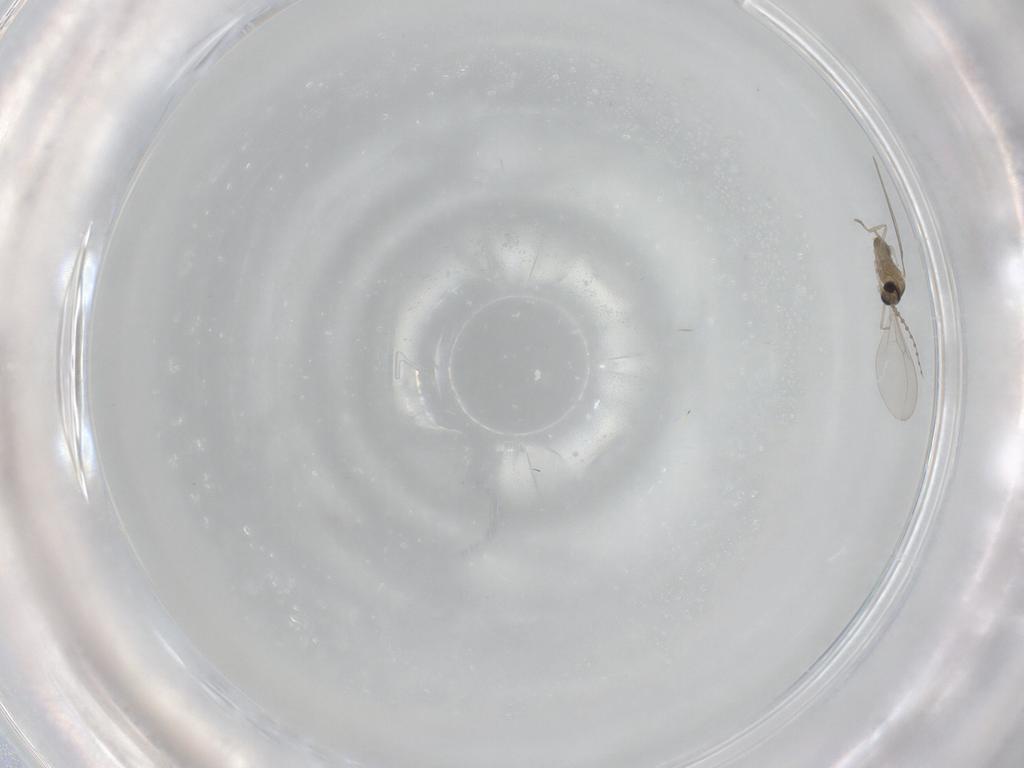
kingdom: Animalia
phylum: Arthropoda
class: Insecta
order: Diptera
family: Cecidomyiidae
